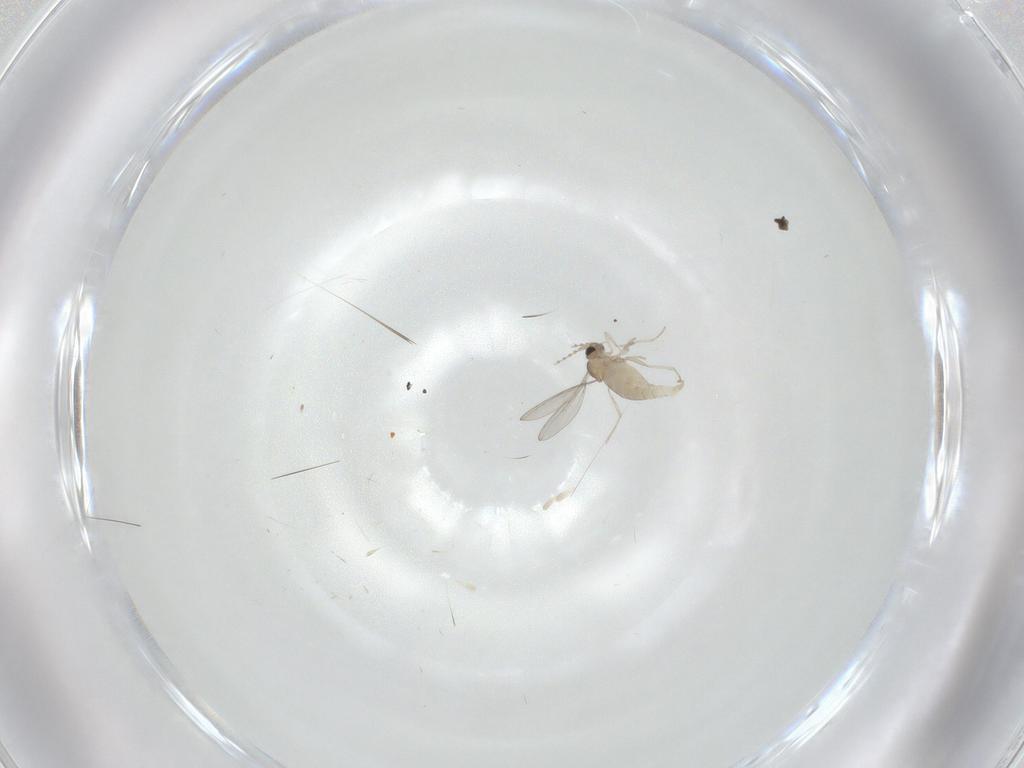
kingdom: Animalia
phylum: Arthropoda
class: Insecta
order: Diptera
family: Cecidomyiidae
